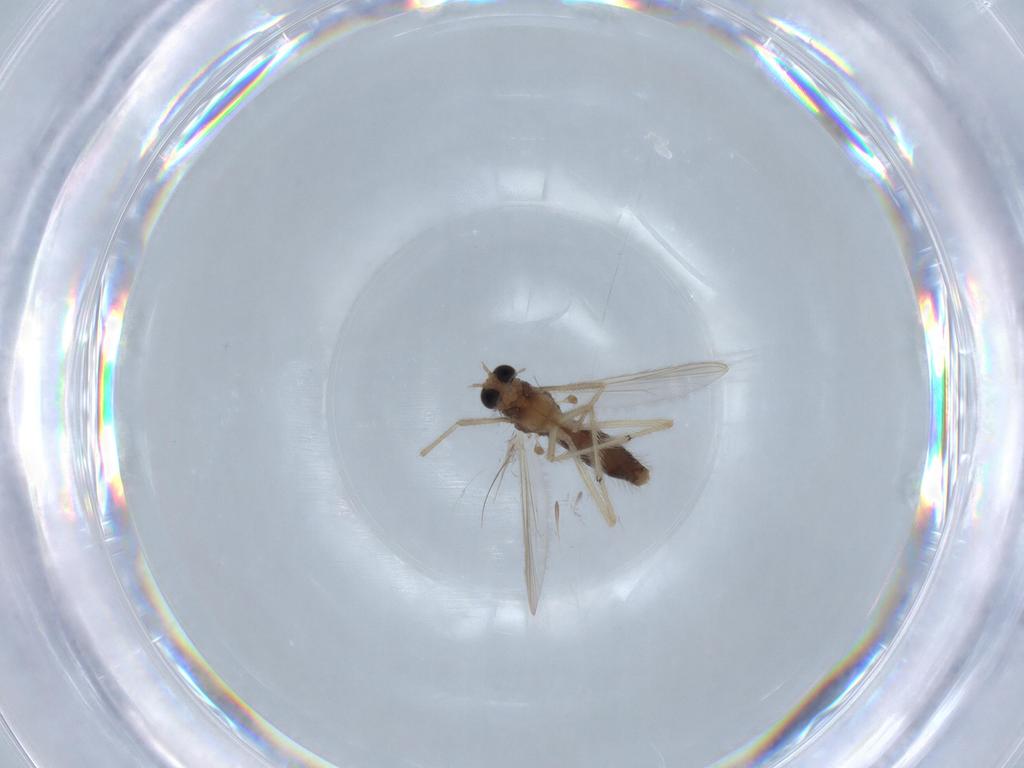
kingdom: Animalia
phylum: Arthropoda
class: Insecta
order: Diptera
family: Chironomidae
